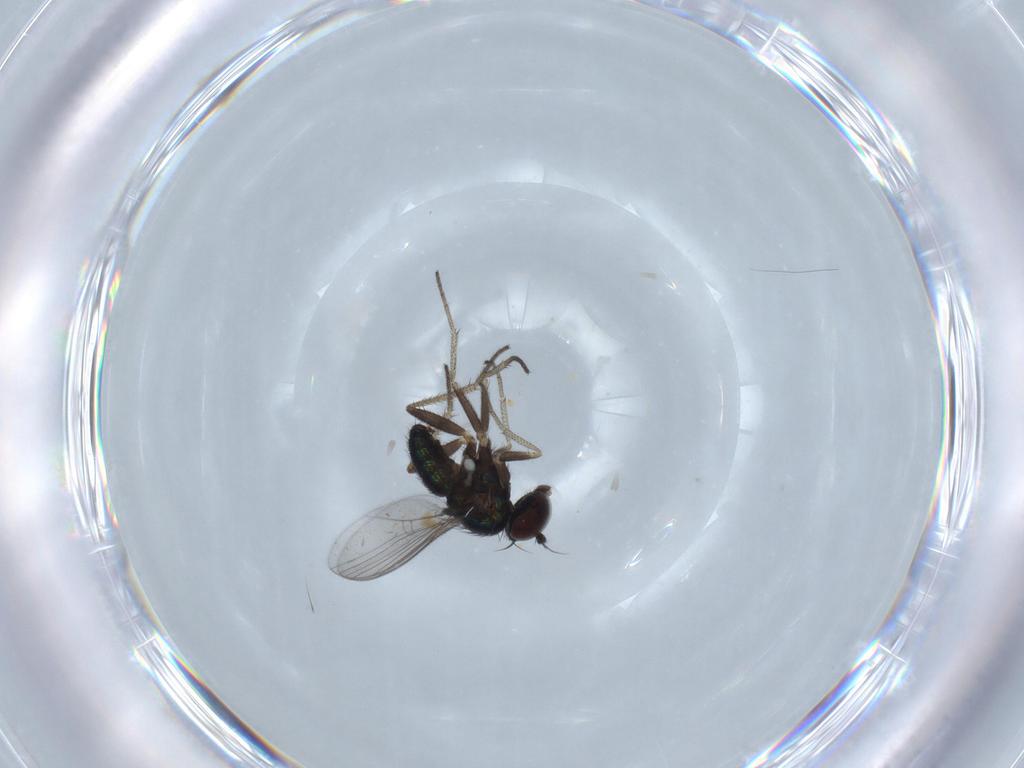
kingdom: Animalia
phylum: Arthropoda
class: Insecta
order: Diptera
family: Dolichopodidae
